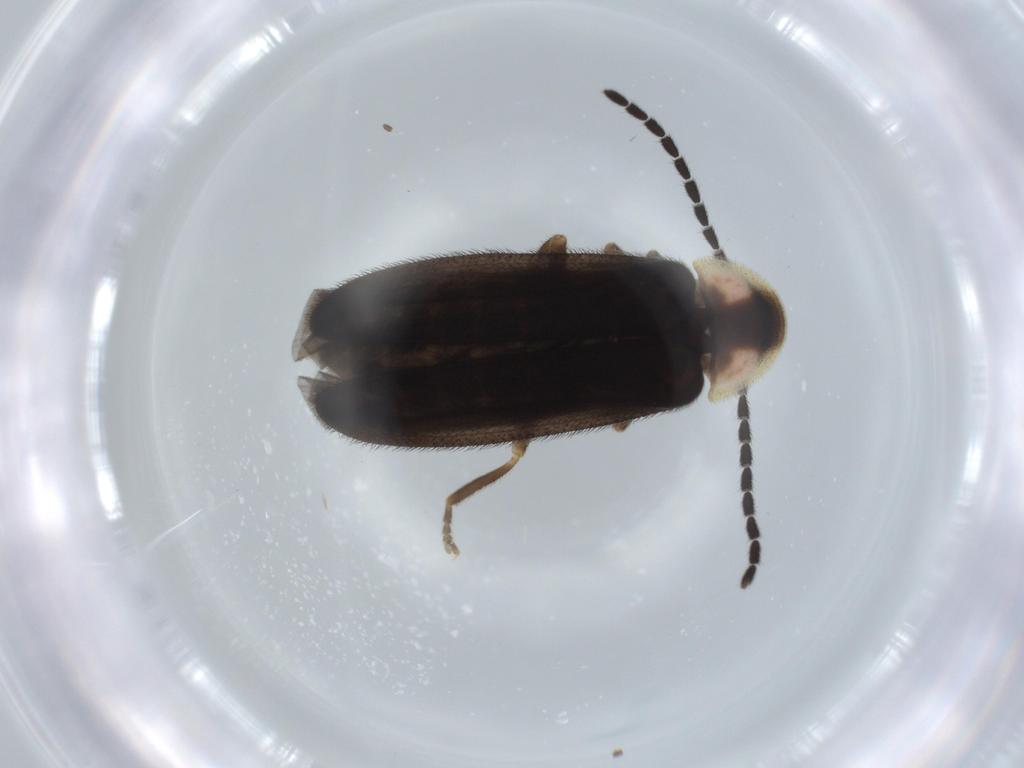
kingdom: Animalia
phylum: Arthropoda
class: Insecta
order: Coleoptera
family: Lampyridae
